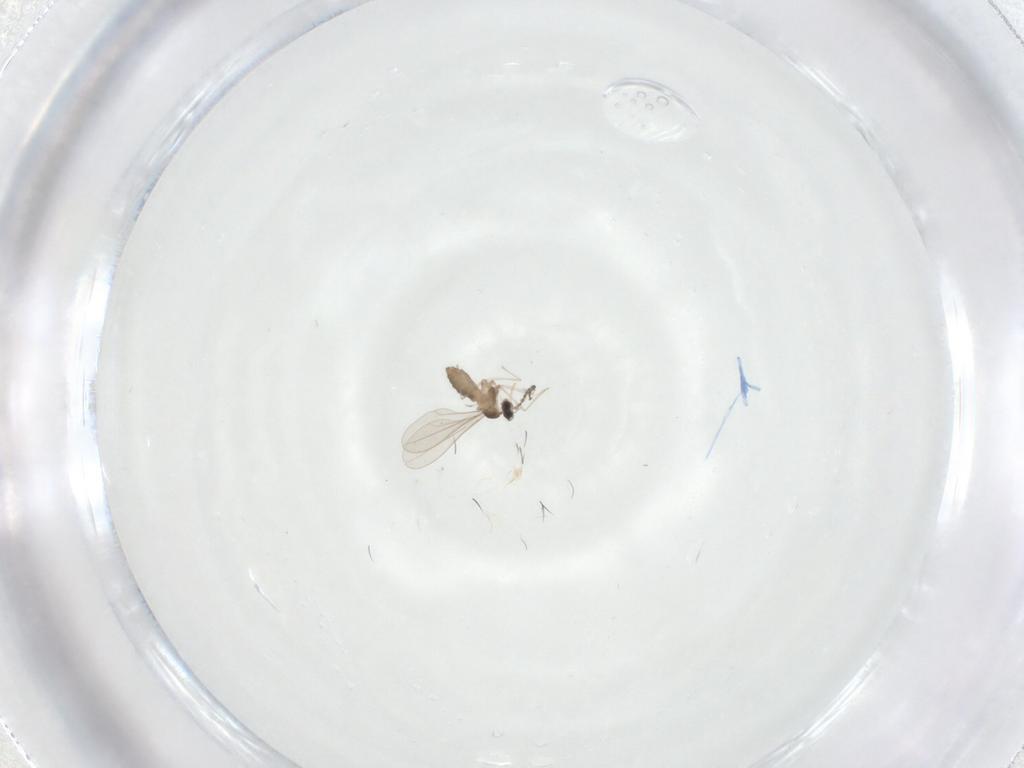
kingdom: Animalia
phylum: Arthropoda
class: Insecta
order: Diptera
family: Cecidomyiidae
